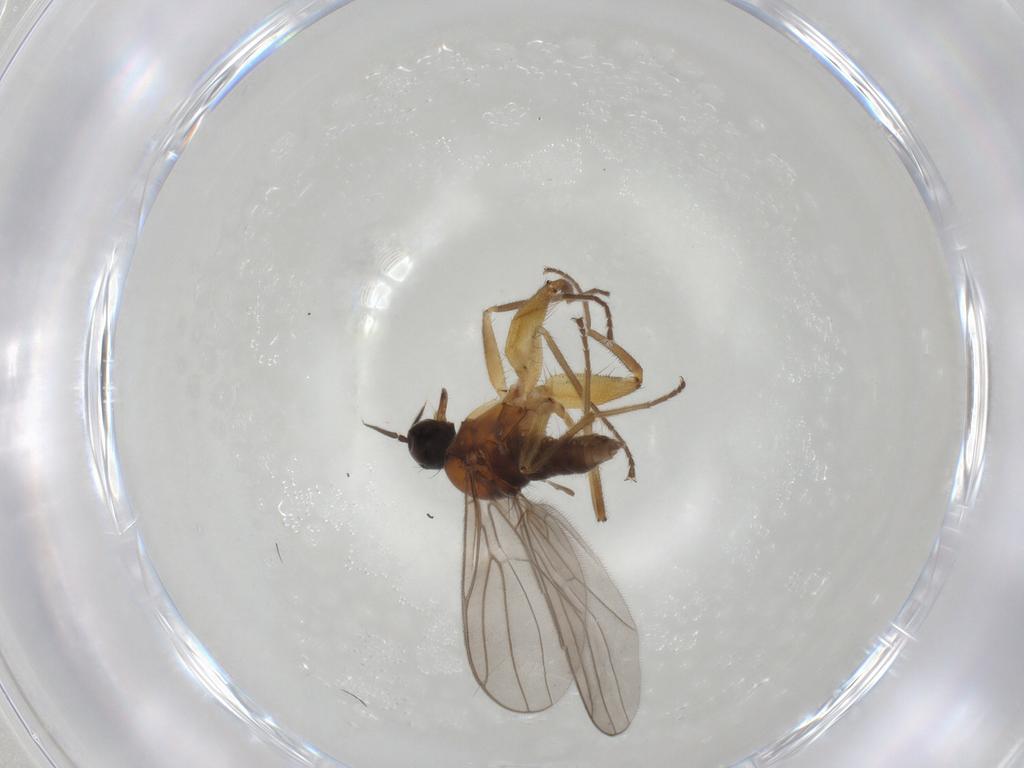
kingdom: Animalia
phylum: Arthropoda
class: Insecta
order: Diptera
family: Hybotidae
